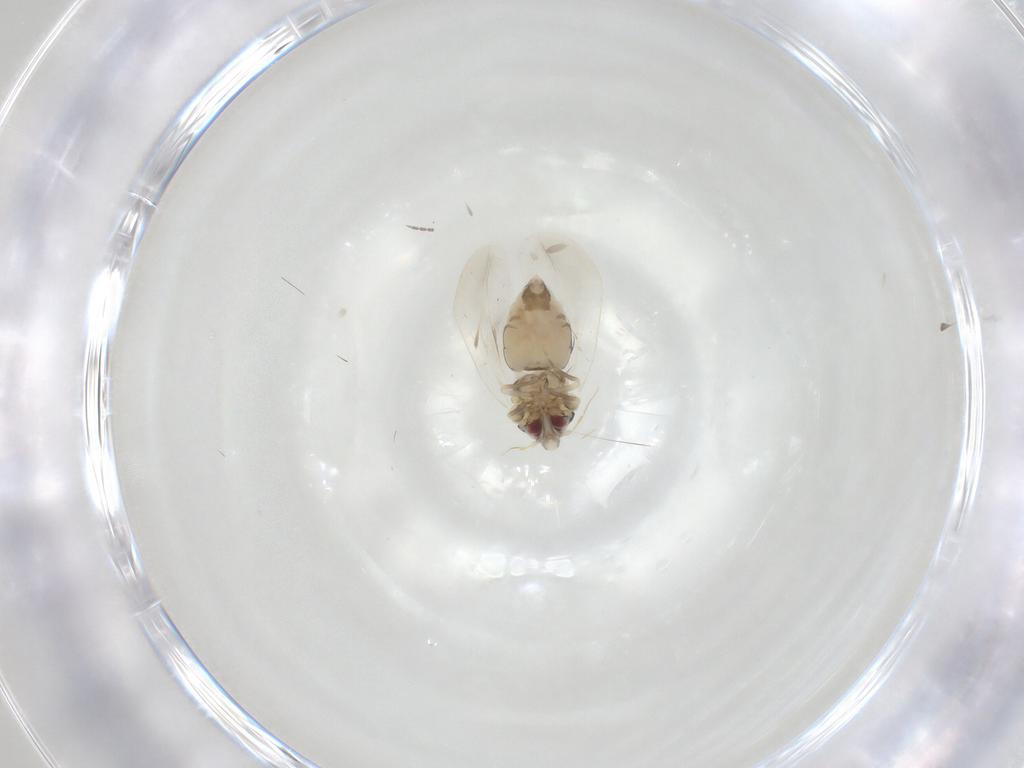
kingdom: Animalia
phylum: Arthropoda
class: Insecta
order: Hemiptera
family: Aleyrodidae
